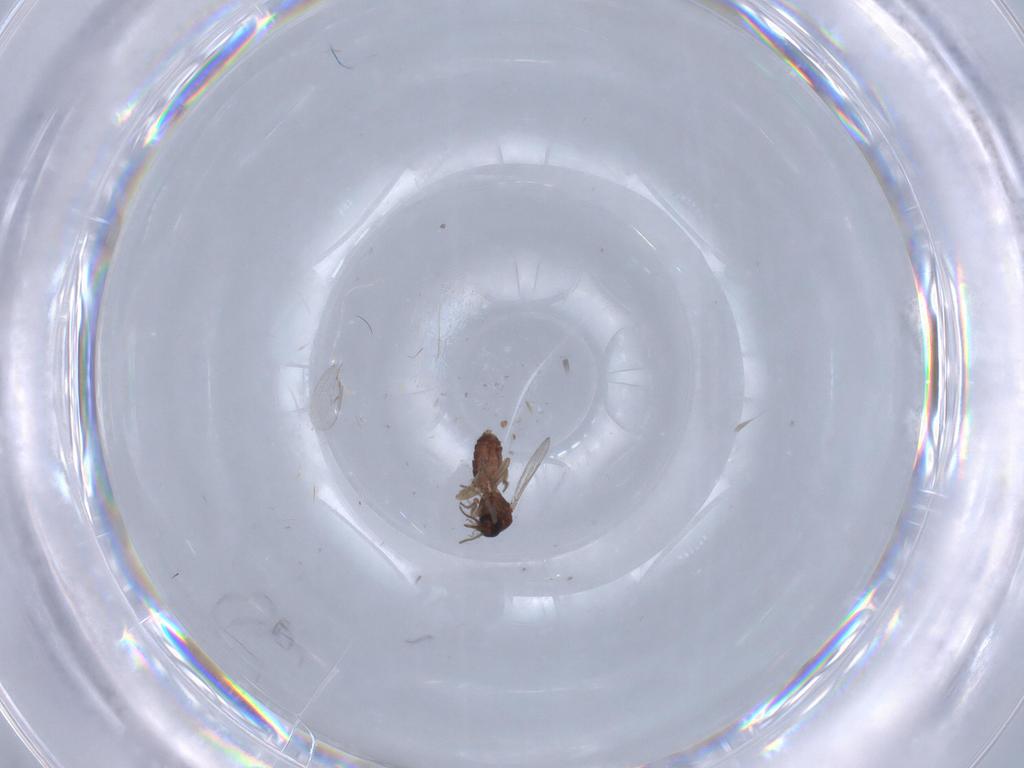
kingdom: Animalia
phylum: Arthropoda
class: Insecta
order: Diptera
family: Ceratopogonidae
